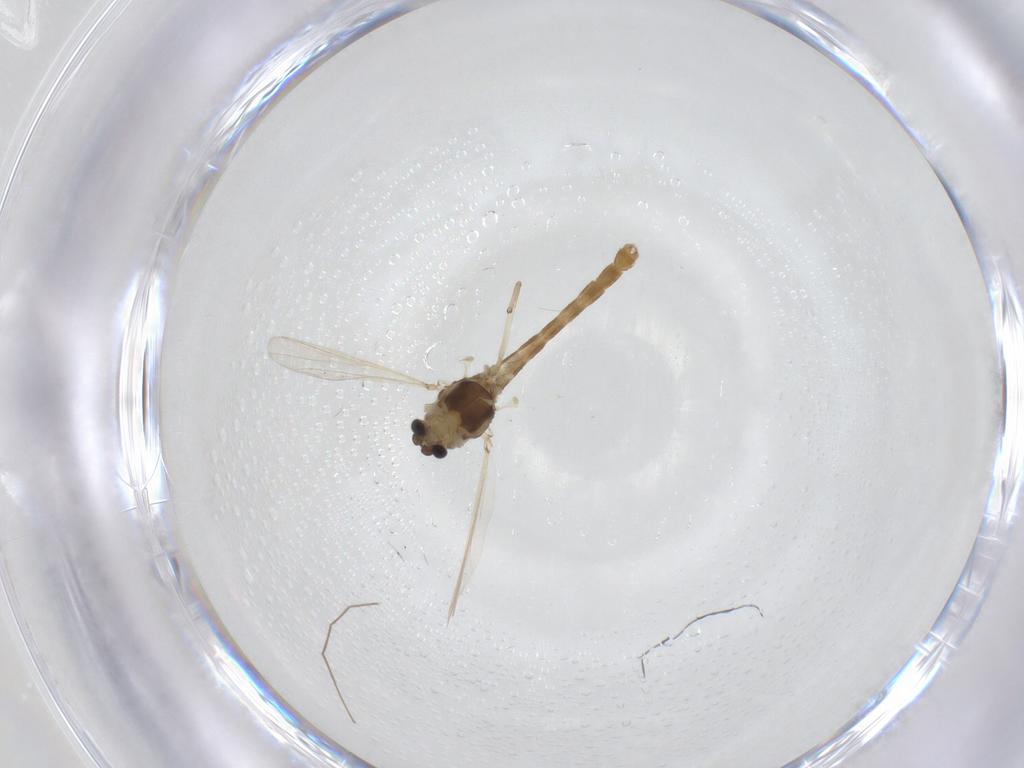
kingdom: Animalia
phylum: Arthropoda
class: Insecta
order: Diptera
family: Chironomidae
